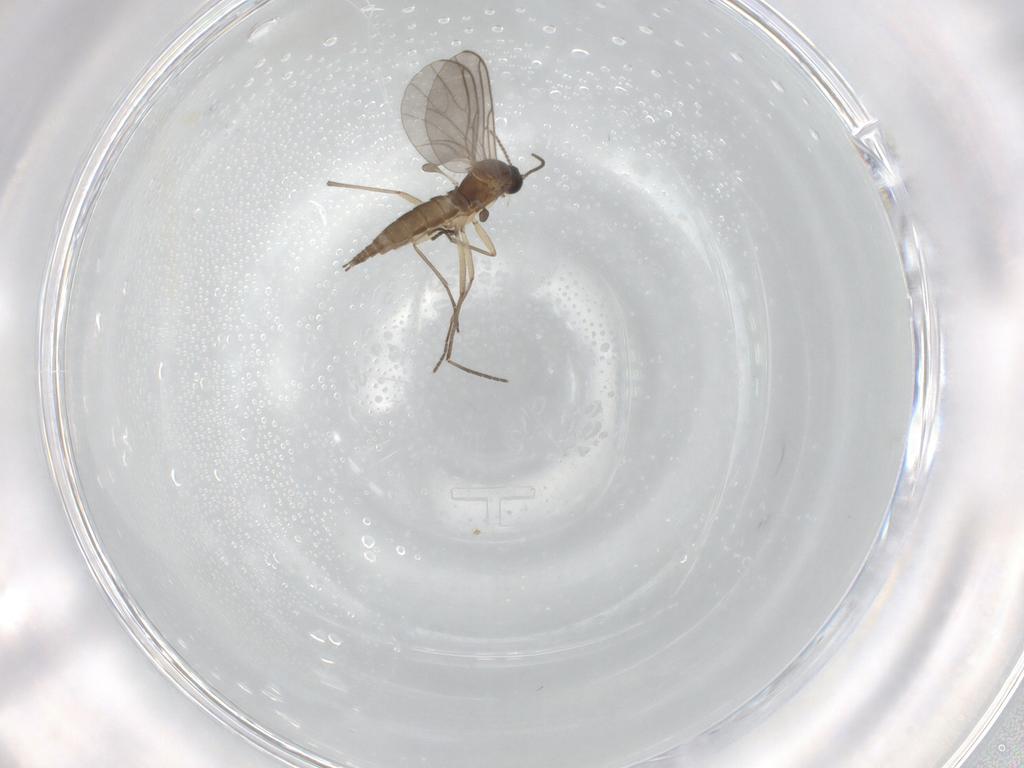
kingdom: Animalia
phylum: Arthropoda
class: Insecta
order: Diptera
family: Sciaridae
